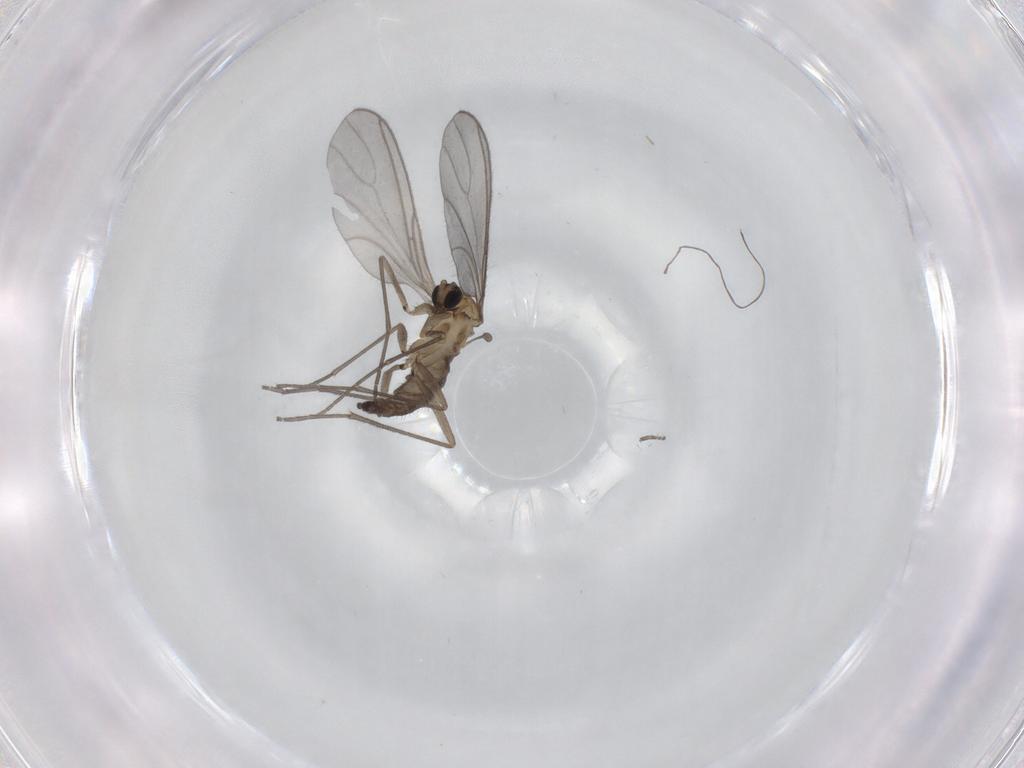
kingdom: Animalia
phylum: Arthropoda
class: Insecta
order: Diptera
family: Sciaridae
